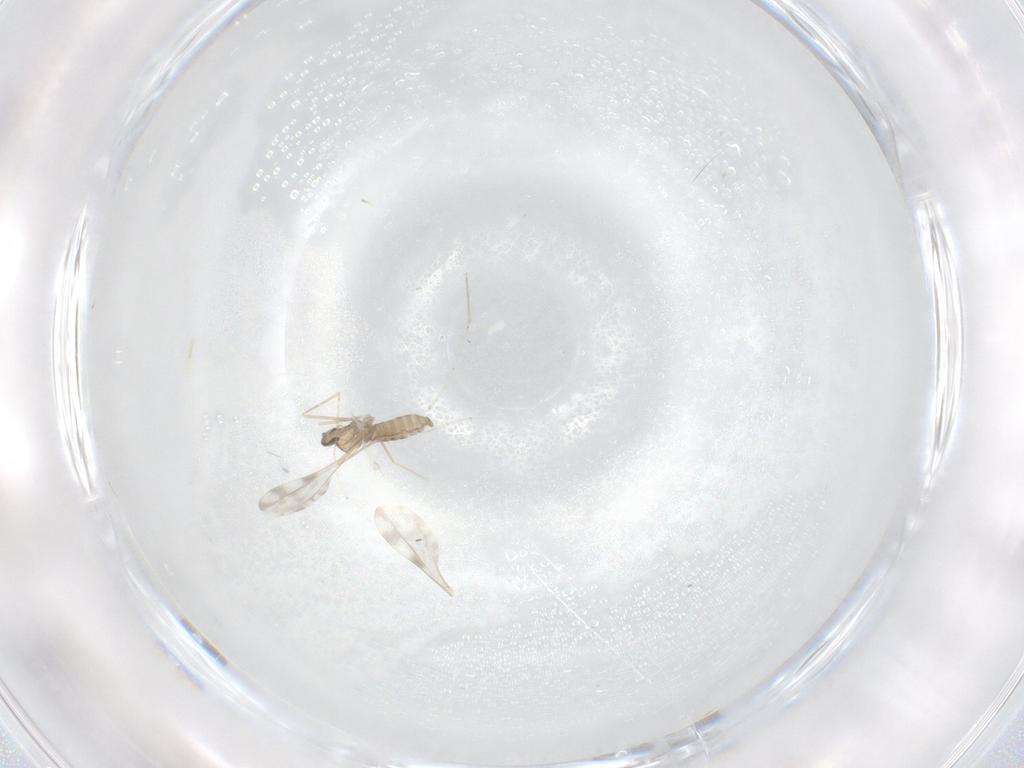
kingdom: Animalia
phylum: Arthropoda
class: Insecta
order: Diptera
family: Cecidomyiidae
